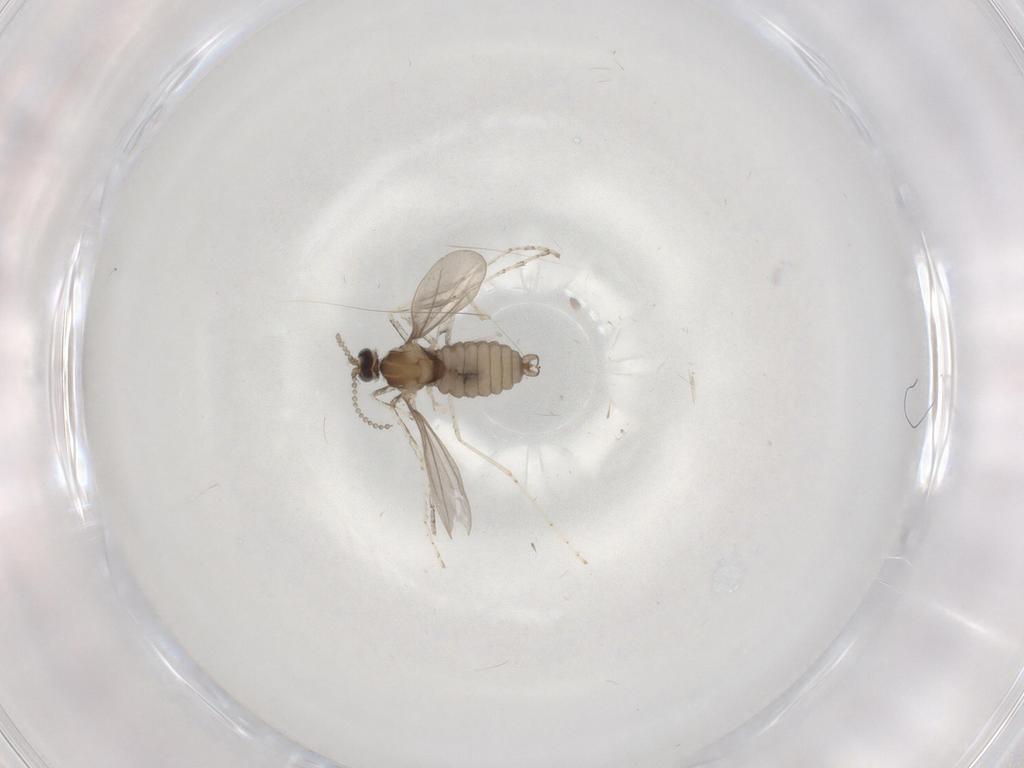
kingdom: Animalia
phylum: Arthropoda
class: Insecta
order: Diptera
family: Cecidomyiidae
